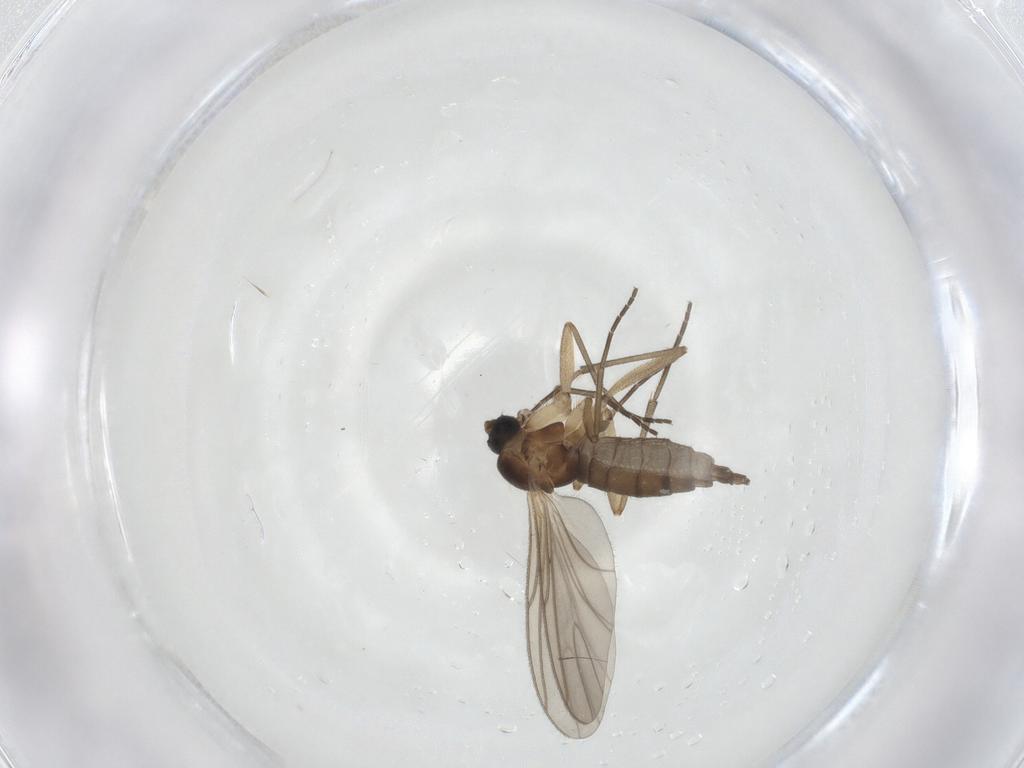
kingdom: Animalia
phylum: Arthropoda
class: Insecta
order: Diptera
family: Sciaridae
